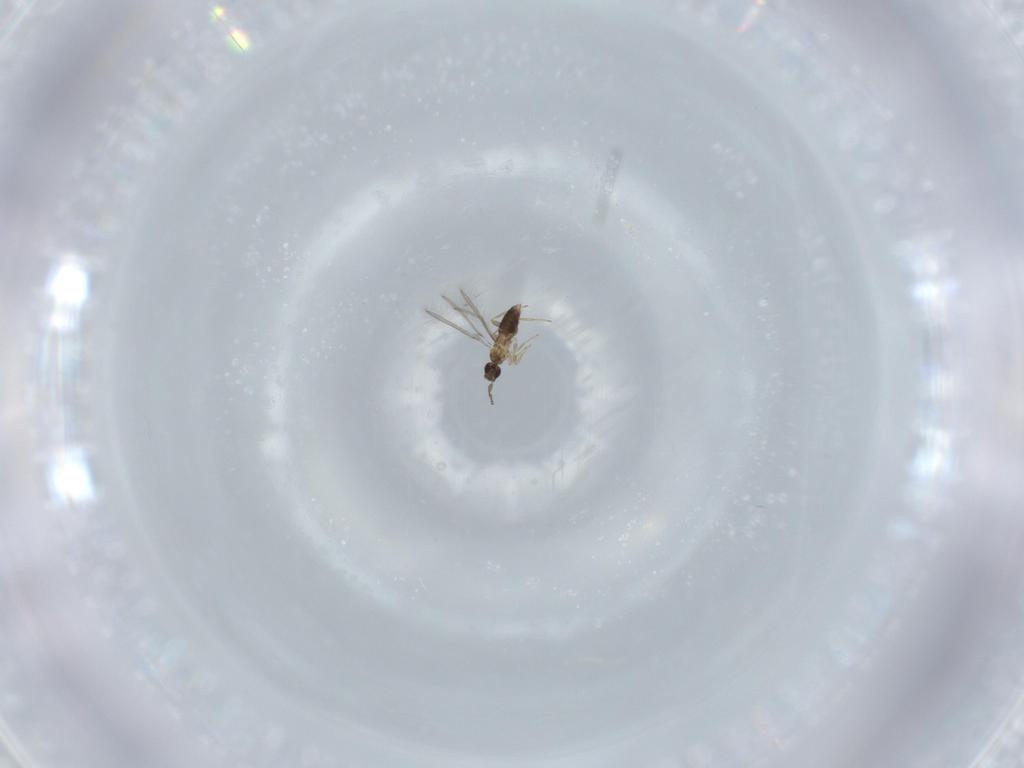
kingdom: Animalia
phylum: Arthropoda
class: Insecta
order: Hymenoptera
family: Mymaridae
